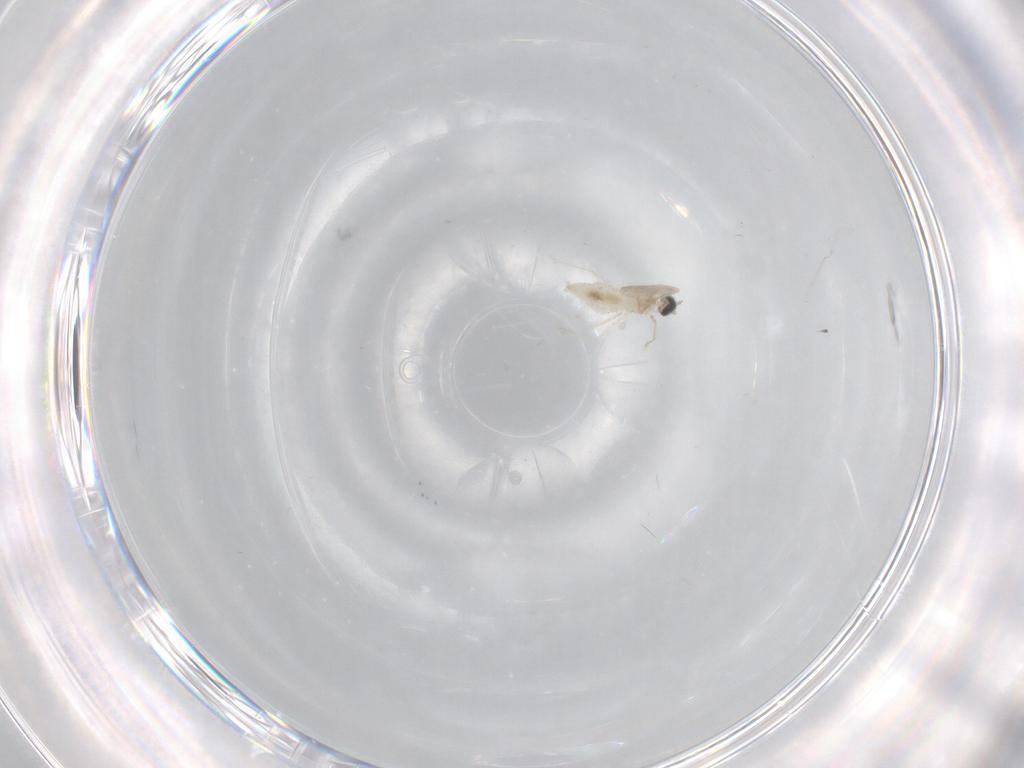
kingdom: Animalia
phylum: Arthropoda
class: Insecta
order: Diptera
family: Cecidomyiidae
